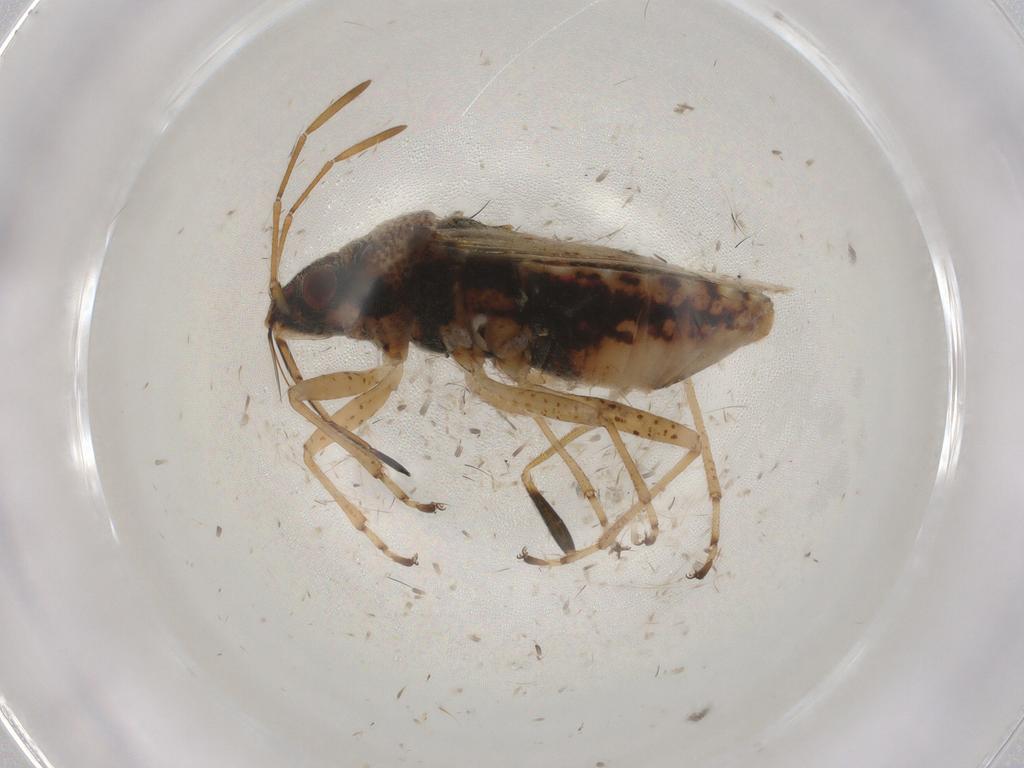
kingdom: Animalia
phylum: Arthropoda
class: Insecta
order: Hemiptera
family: Lygaeidae
